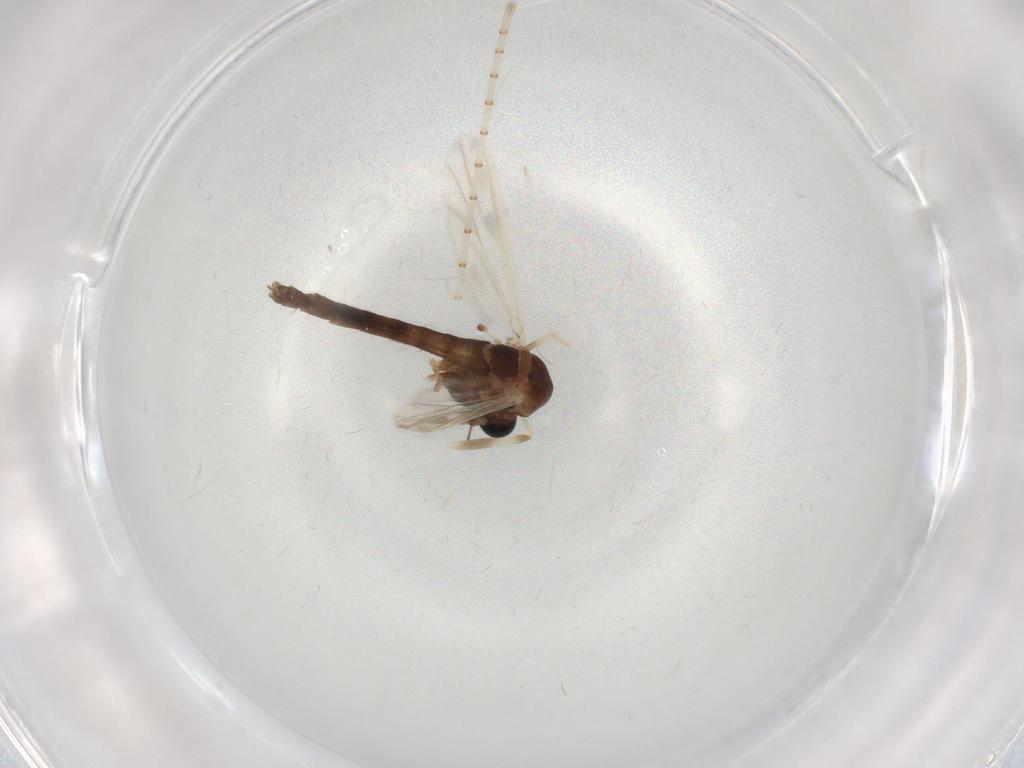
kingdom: Animalia
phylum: Arthropoda
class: Insecta
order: Diptera
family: Chironomidae
